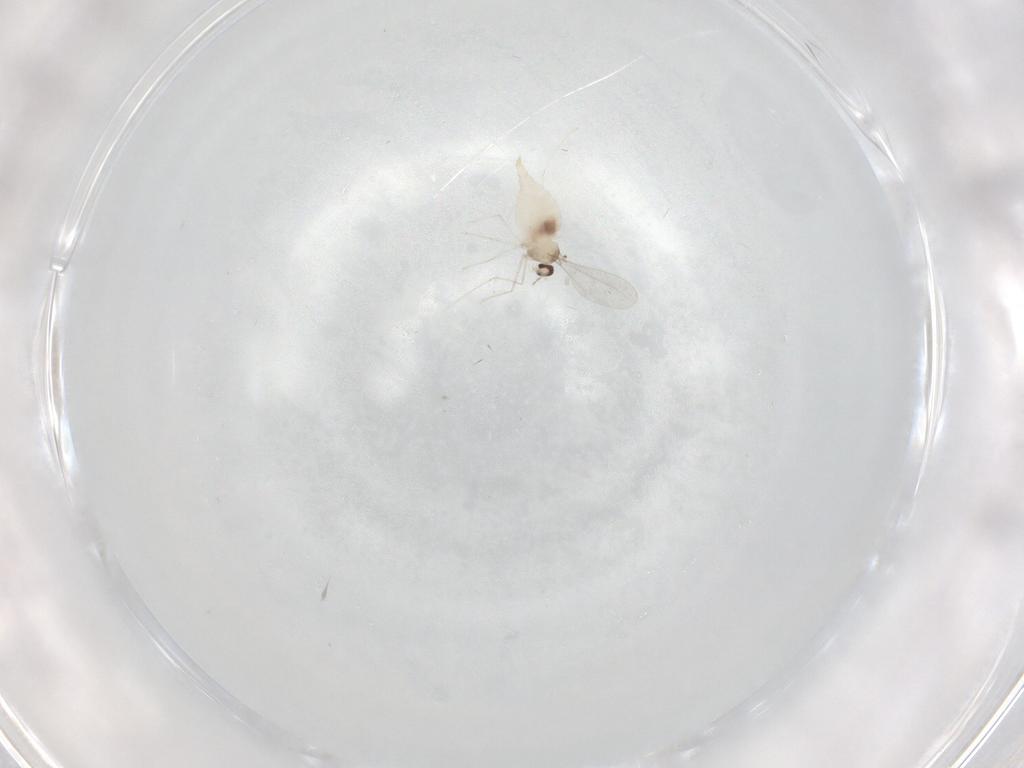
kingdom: Animalia
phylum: Arthropoda
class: Insecta
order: Diptera
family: Cecidomyiidae
